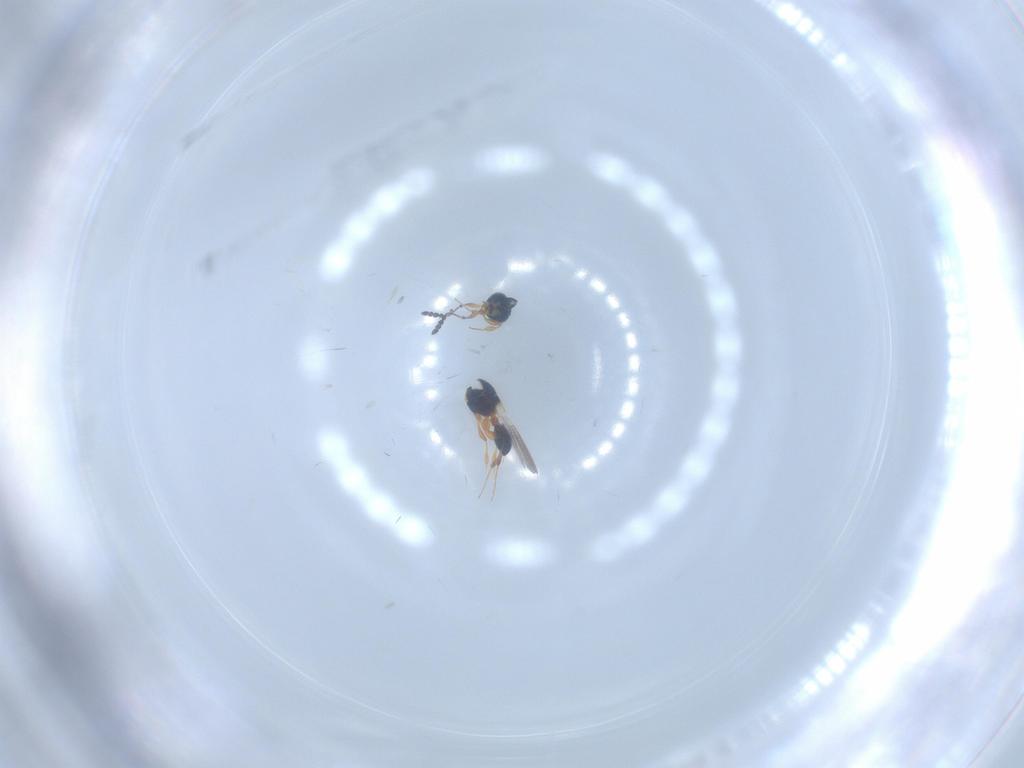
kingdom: Animalia
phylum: Arthropoda
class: Insecta
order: Hymenoptera
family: Platygastridae
